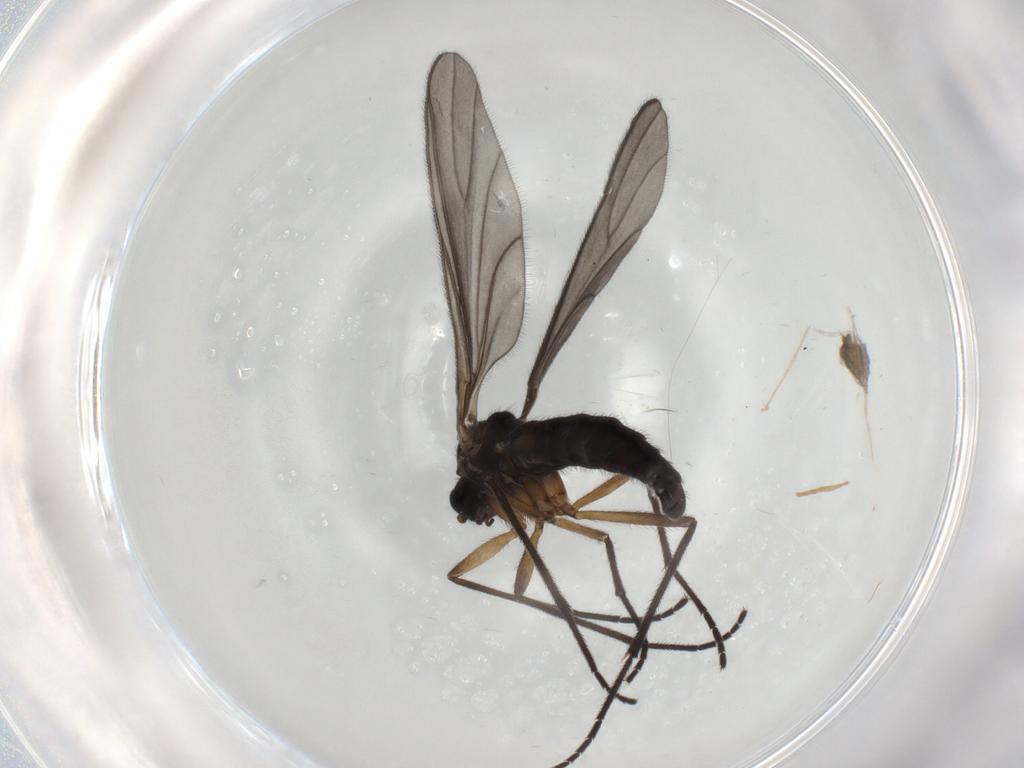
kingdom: Animalia
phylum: Arthropoda
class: Insecta
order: Diptera
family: Sciaridae
